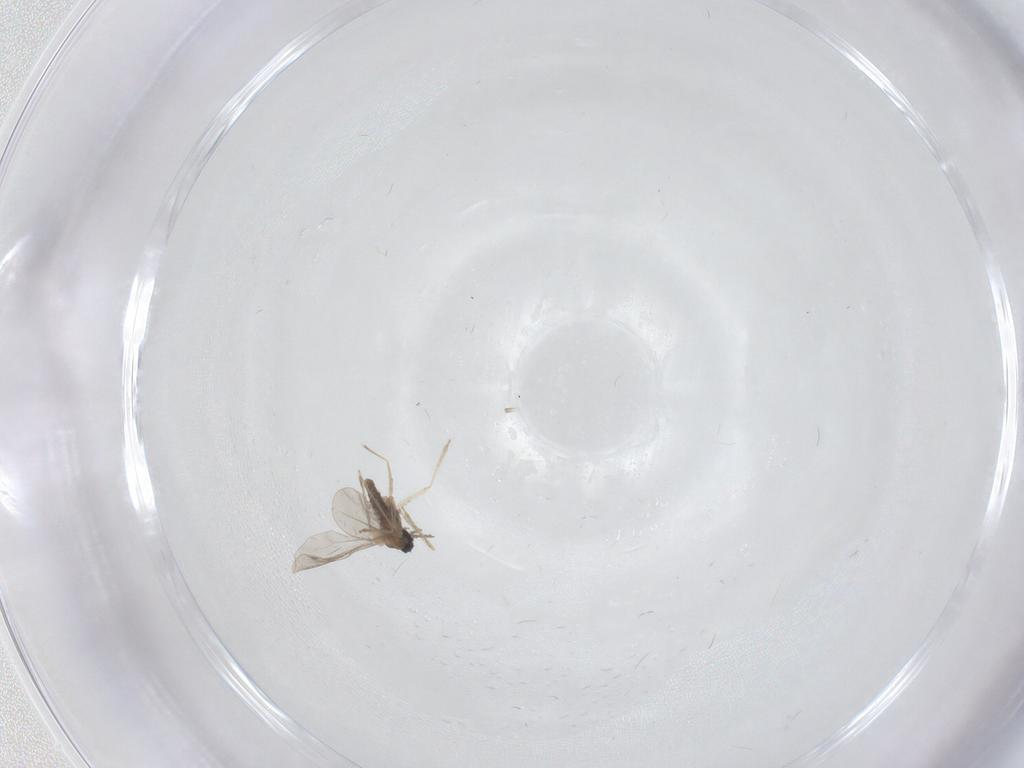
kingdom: Animalia
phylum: Arthropoda
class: Insecta
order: Diptera
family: Cecidomyiidae
